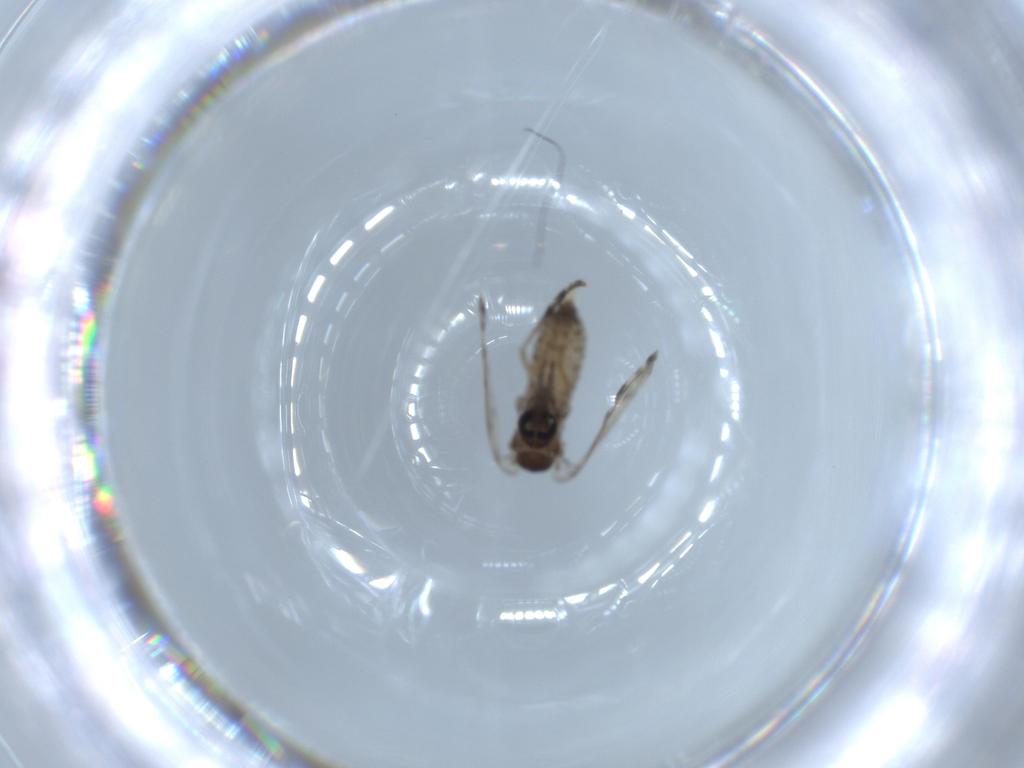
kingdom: Animalia
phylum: Arthropoda
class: Insecta
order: Diptera
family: Psychodidae
